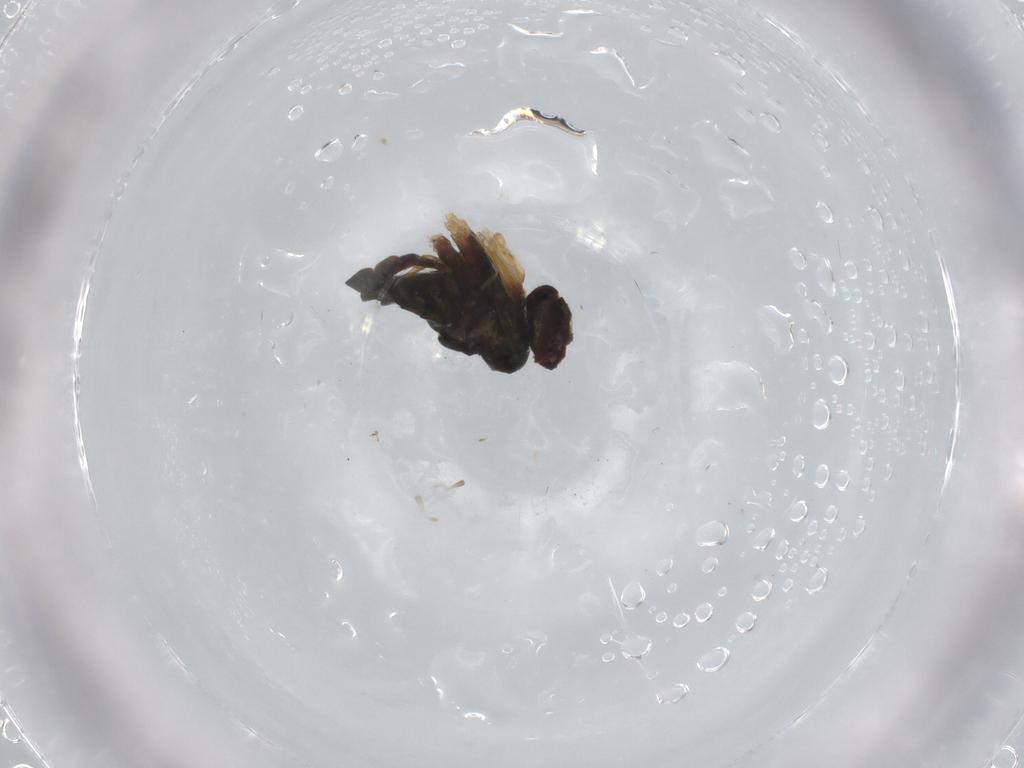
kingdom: Animalia
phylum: Arthropoda
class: Insecta
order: Diptera
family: Dolichopodidae
